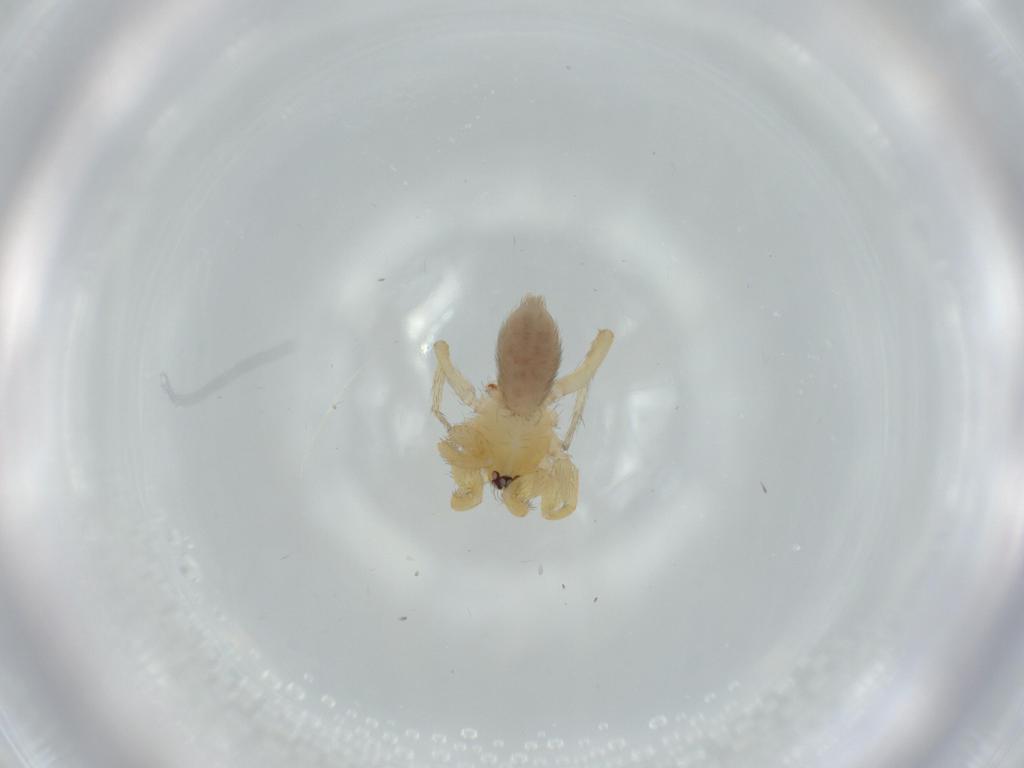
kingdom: Animalia
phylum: Arthropoda
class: Arachnida
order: Araneae
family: Oonopidae
